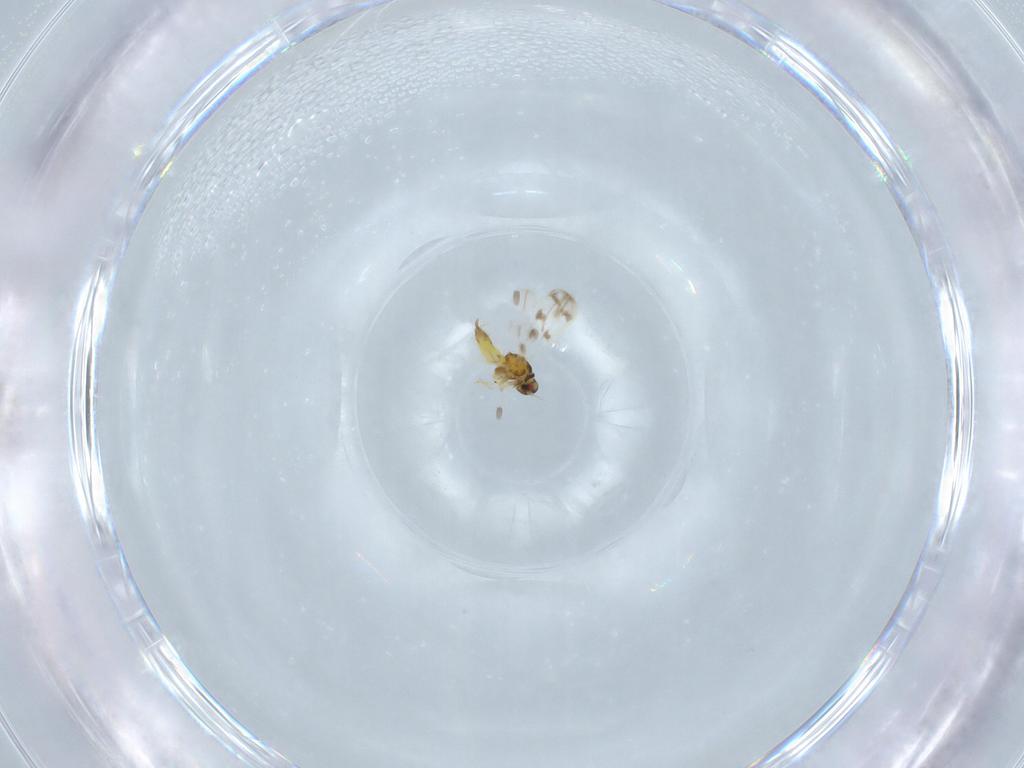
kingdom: Animalia
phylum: Arthropoda
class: Insecta
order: Hemiptera
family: Aleyrodidae
